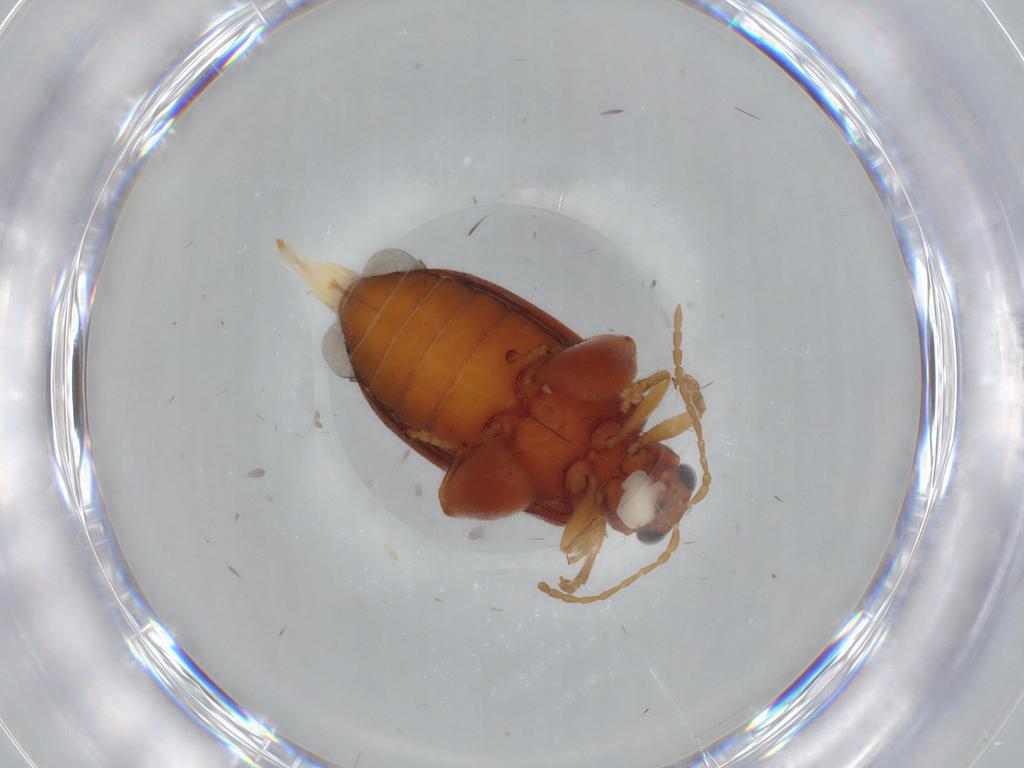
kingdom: Animalia
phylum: Arthropoda
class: Insecta
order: Coleoptera
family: Chrysomelidae
